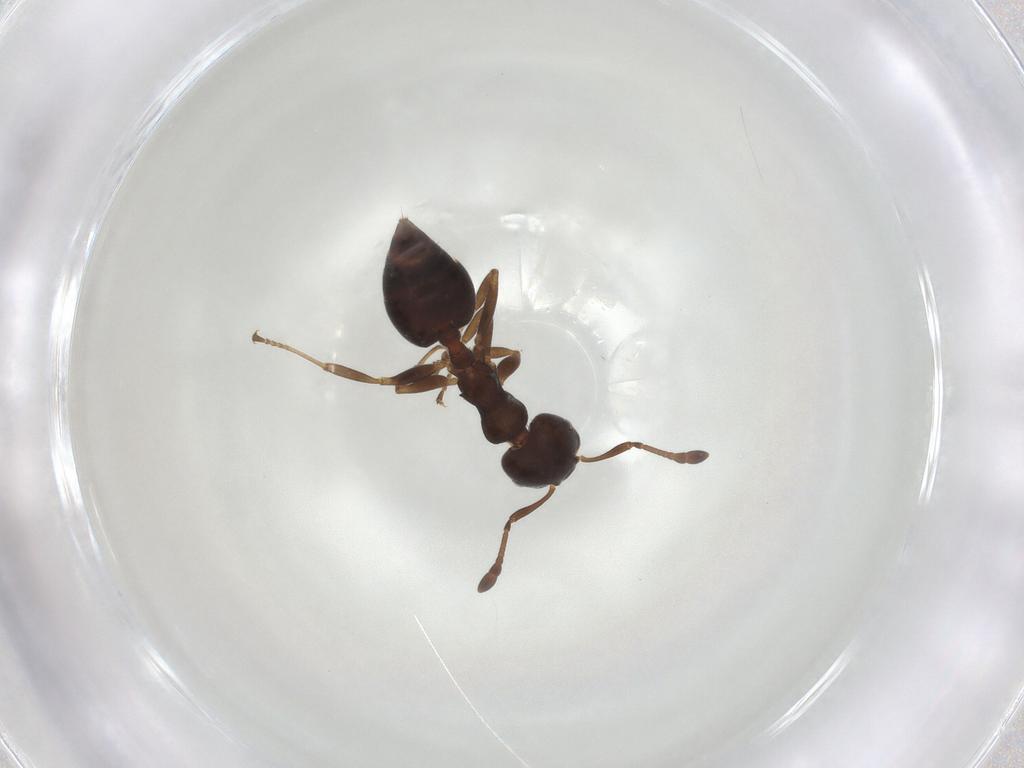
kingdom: Animalia
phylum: Arthropoda
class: Insecta
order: Hymenoptera
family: Formicidae
